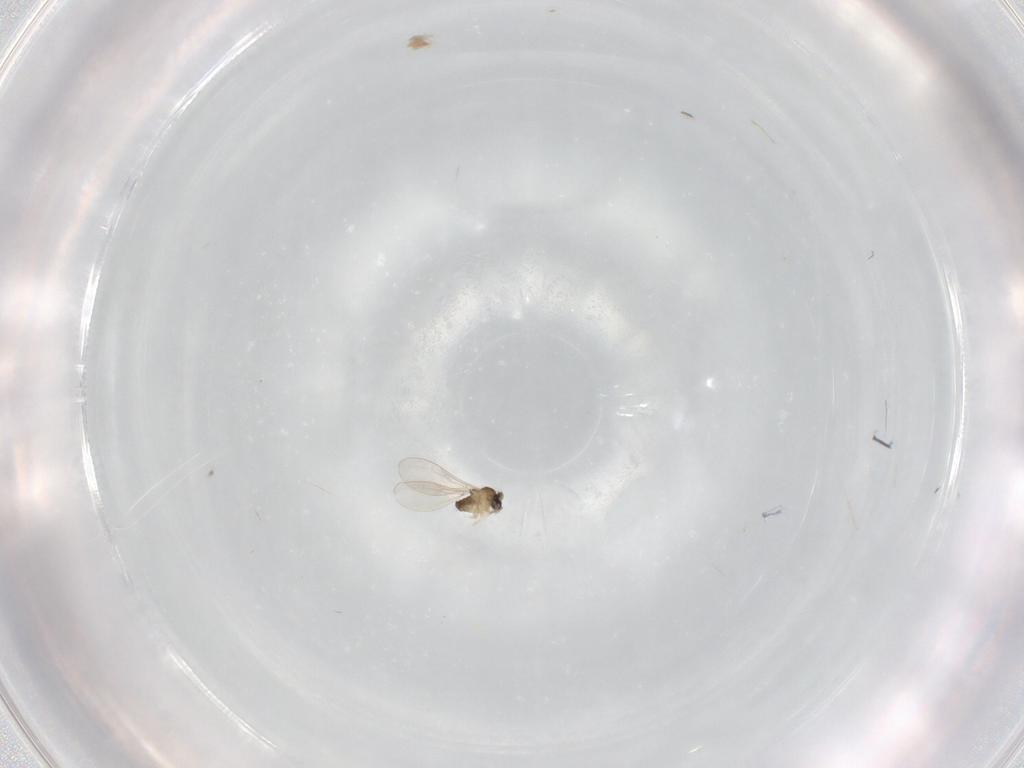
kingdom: Animalia
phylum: Arthropoda
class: Insecta
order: Diptera
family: Cecidomyiidae
